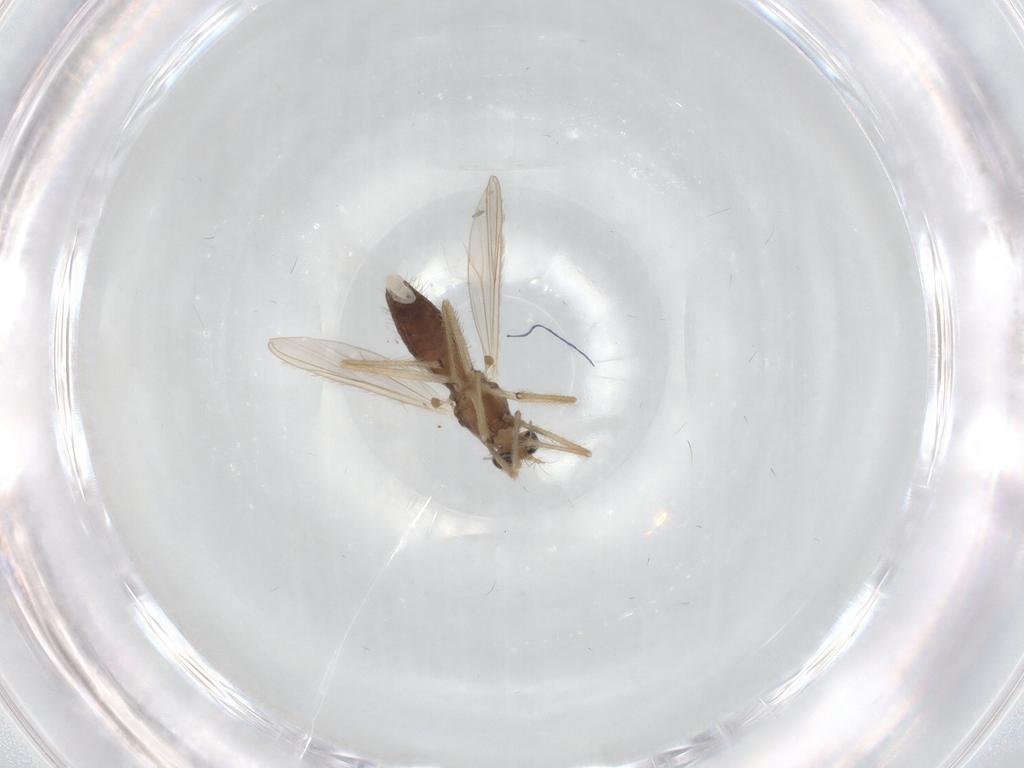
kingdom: Animalia
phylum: Arthropoda
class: Insecta
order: Diptera
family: Chironomidae
